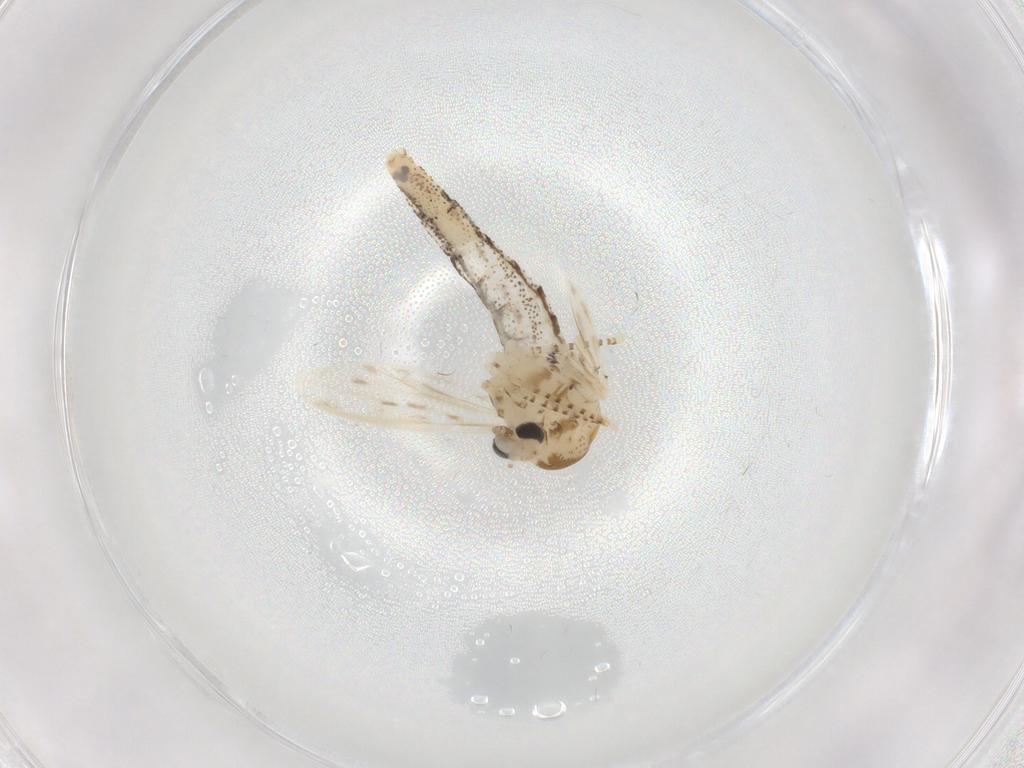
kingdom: Animalia
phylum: Arthropoda
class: Insecta
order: Diptera
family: Chaoboridae
